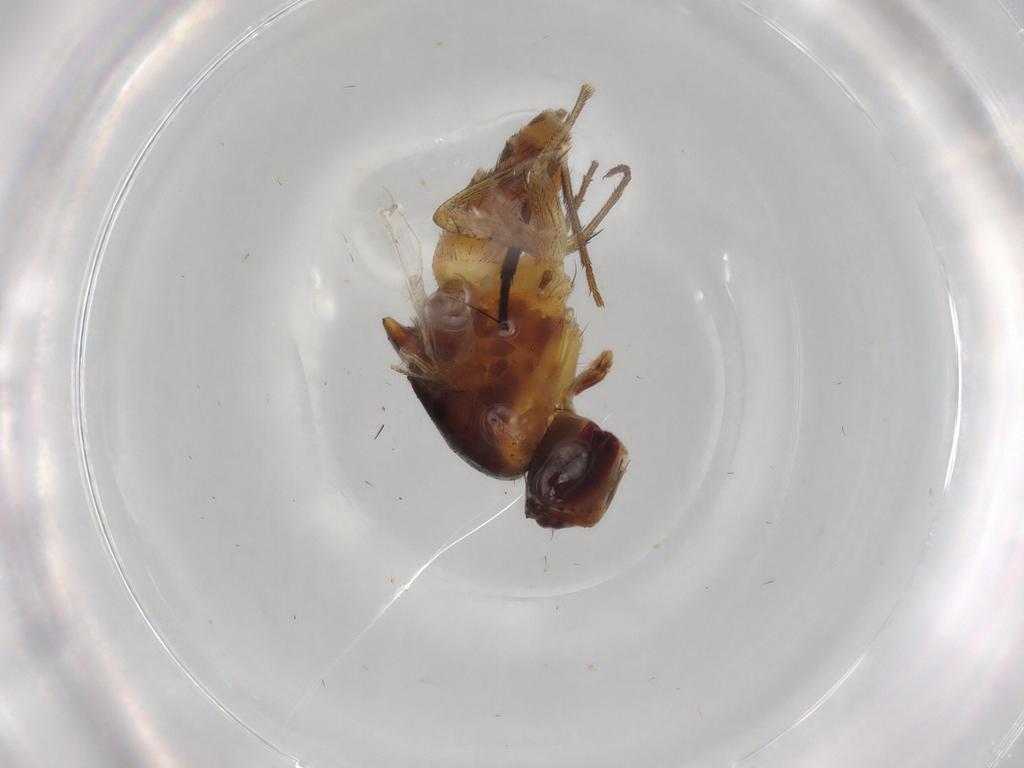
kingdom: Animalia
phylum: Arthropoda
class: Insecta
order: Diptera
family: Culicidae
